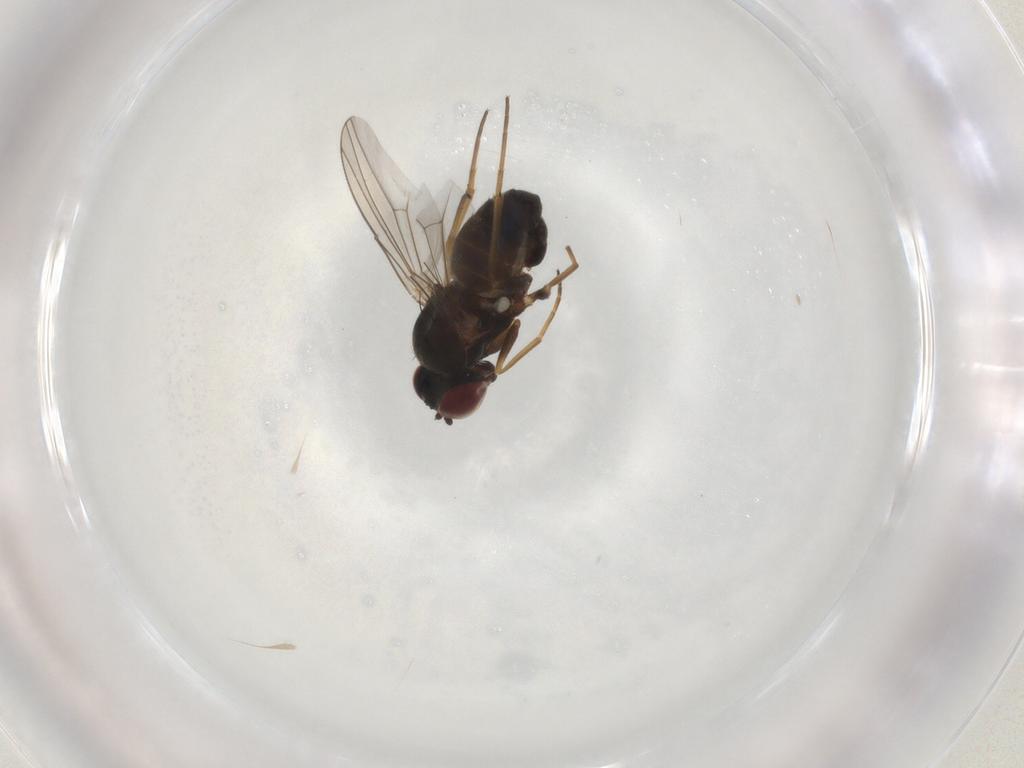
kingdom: Animalia
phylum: Arthropoda
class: Insecta
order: Diptera
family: Dolichopodidae
